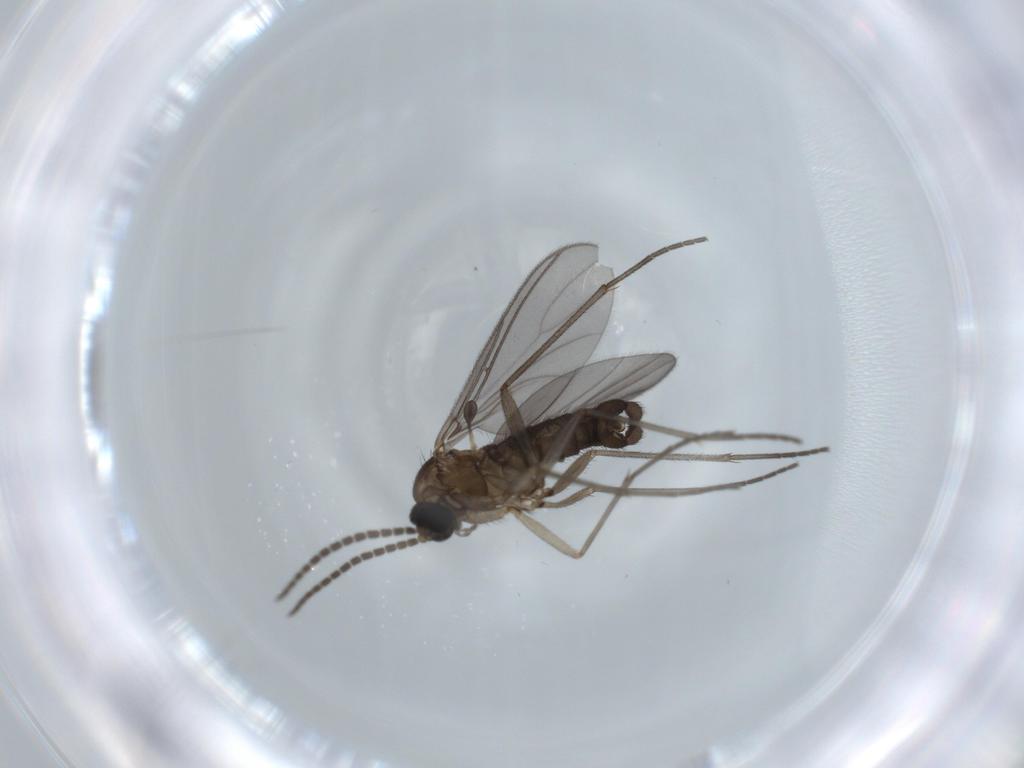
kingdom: Animalia
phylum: Arthropoda
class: Insecta
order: Diptera
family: Sciaridae
